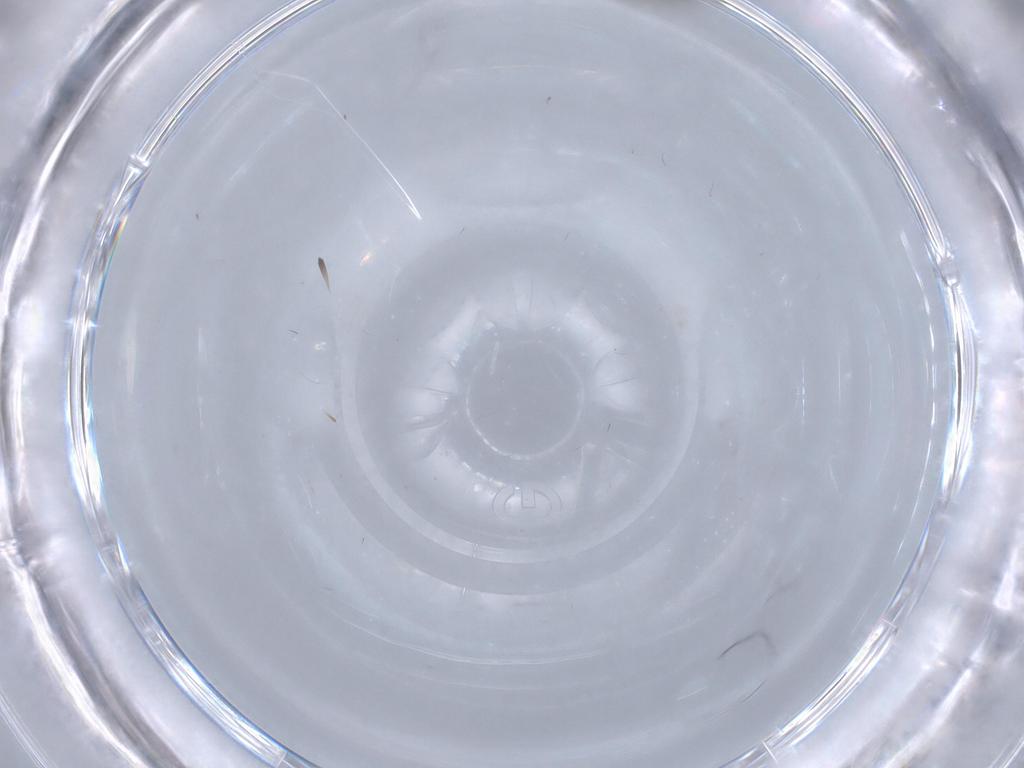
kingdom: Animalia
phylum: Arthropoda
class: Insecta
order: Diptera
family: Phoridae
